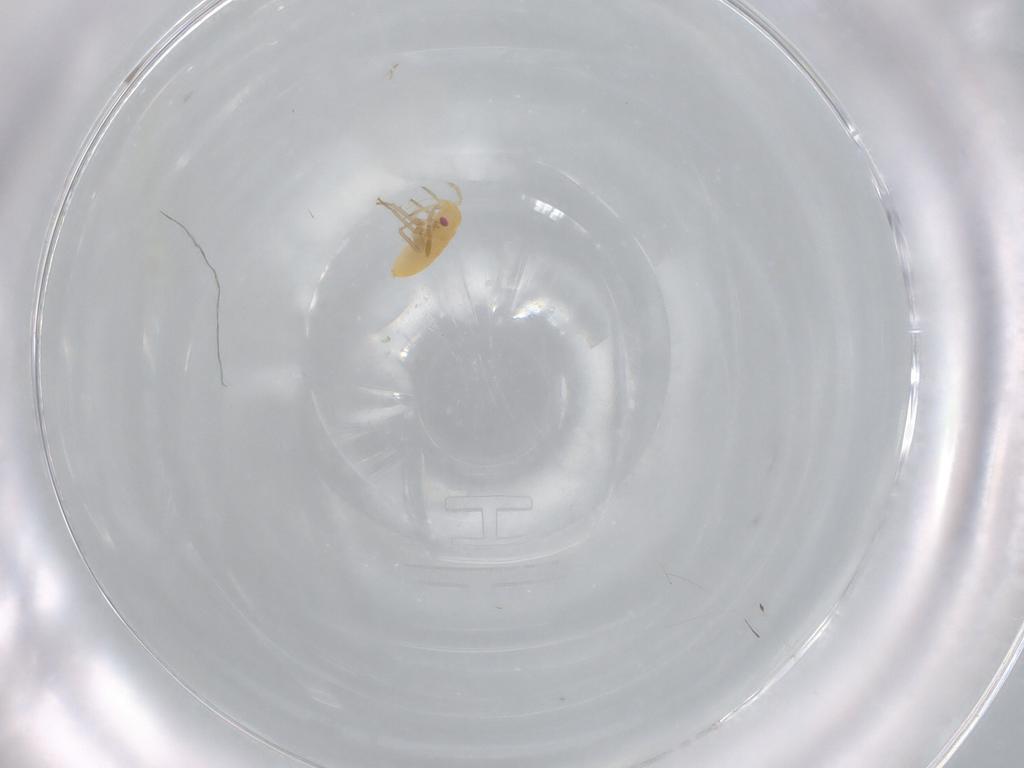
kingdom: Animalia
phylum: Arthropoda
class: Insecta
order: Hemiptera
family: Miridae
